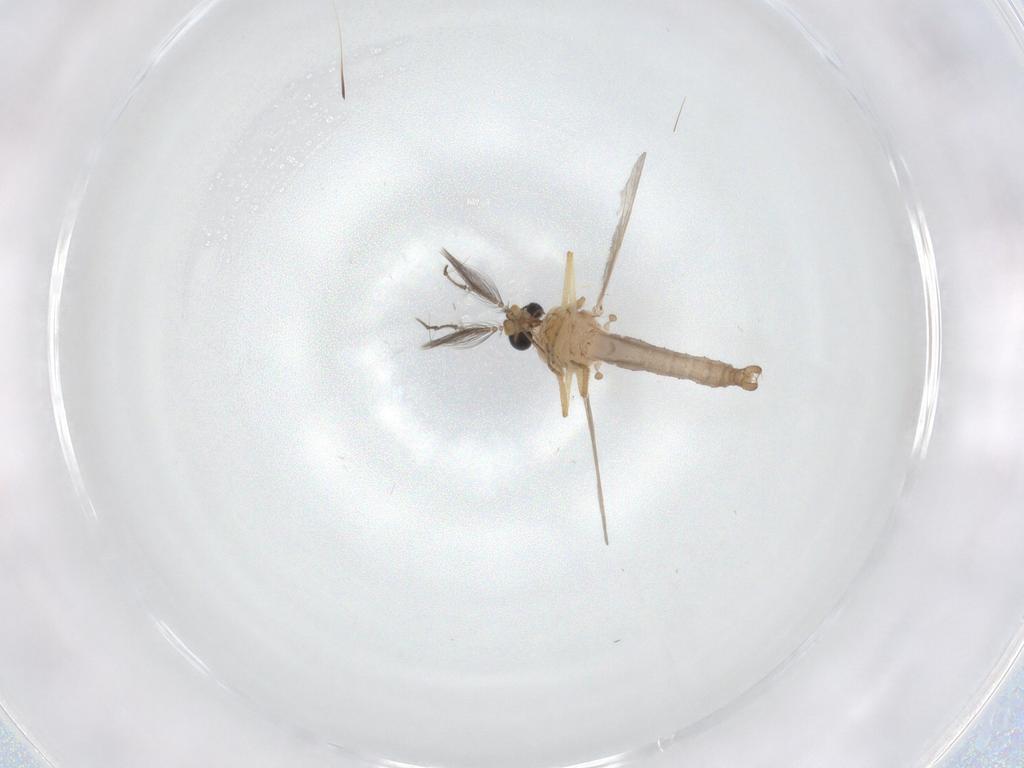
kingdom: Animalia
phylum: Arthropoda
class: Insecta
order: Diptera
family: Ceratopogonidae
